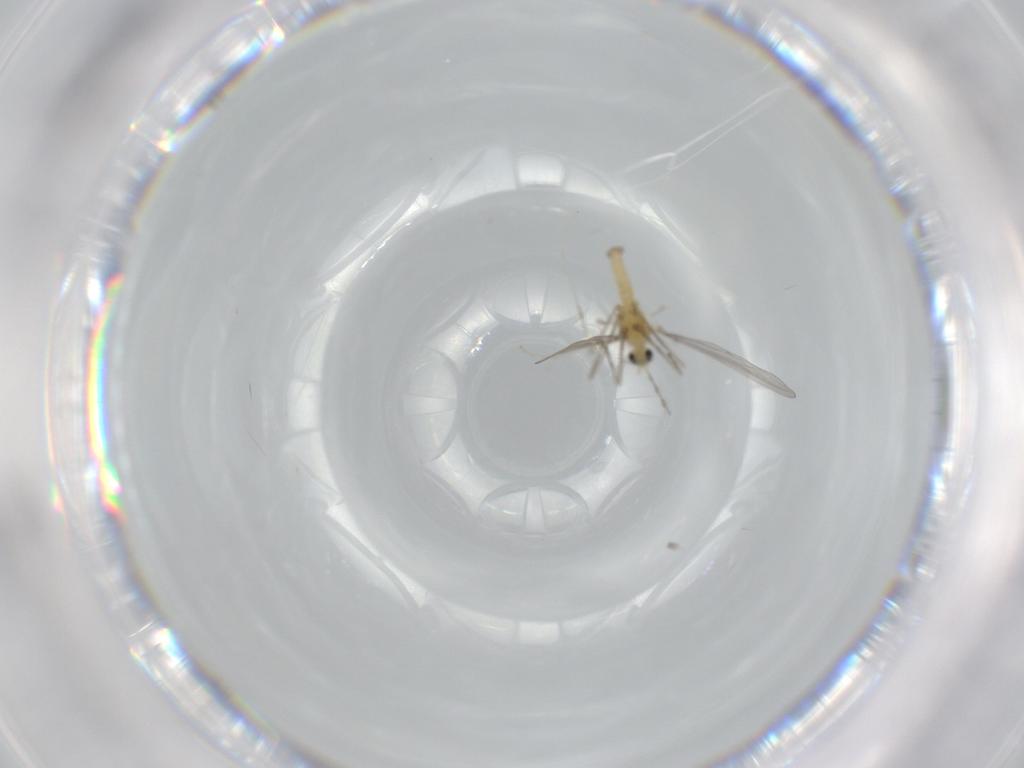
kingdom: Animalia
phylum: Arthropoda
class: Insecta
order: Diptera
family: Cecidomyiidae
